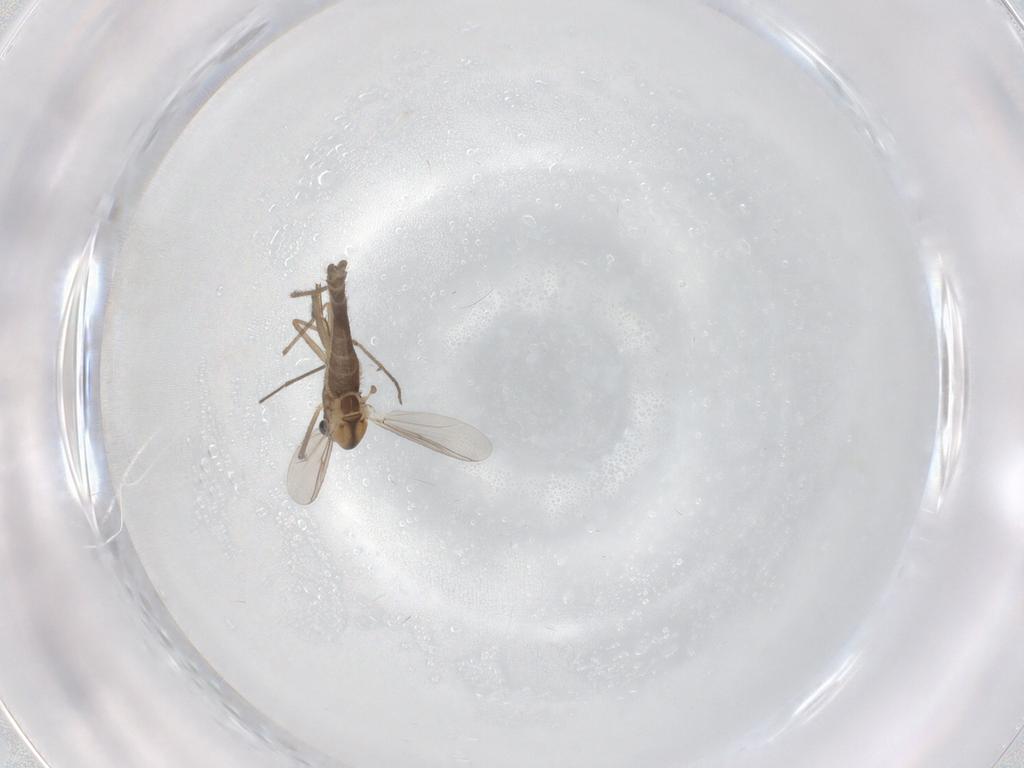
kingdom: Animalia
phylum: Arthropoda
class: Insecta
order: Diptera
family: Chironomidae
